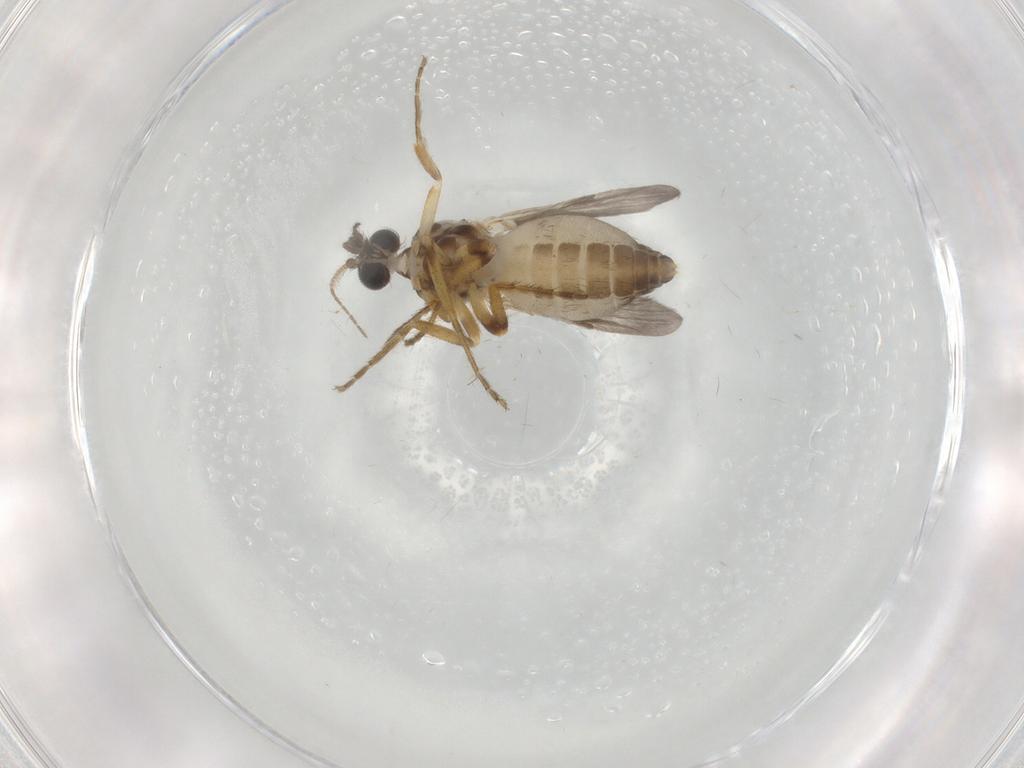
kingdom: Animalia
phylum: Arthropoda
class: Insecta
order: Diptera
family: Ceratopogonidae
